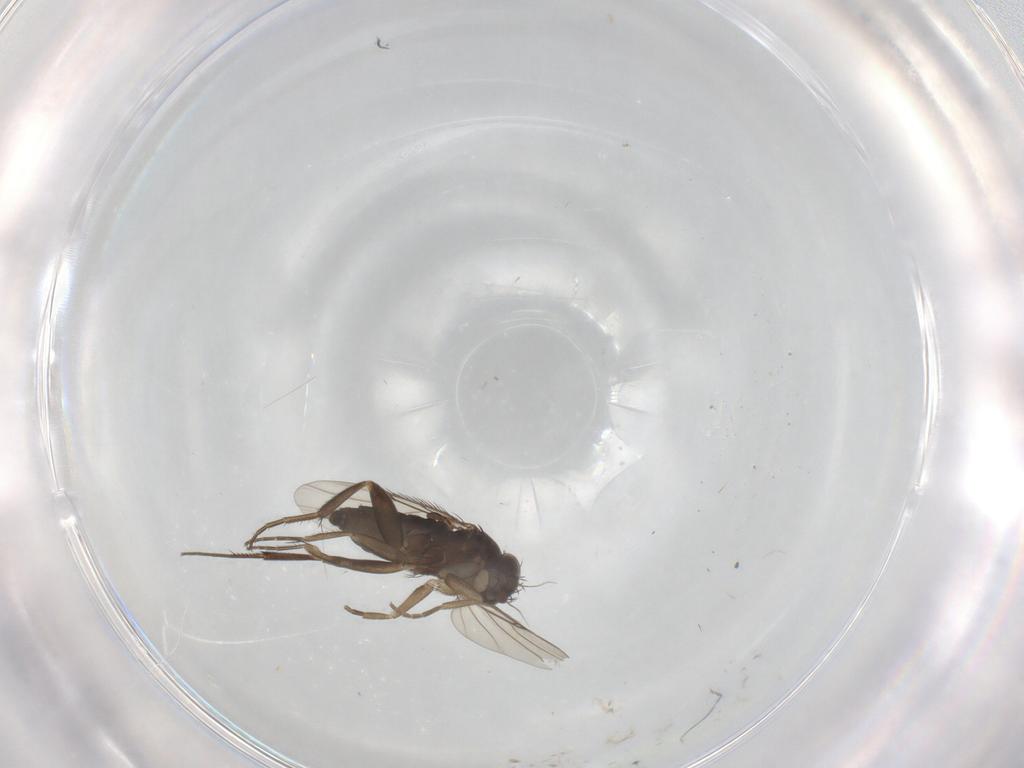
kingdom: Animalia
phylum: Arthropoda
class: Insecta
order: Diptera
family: Phoridae
